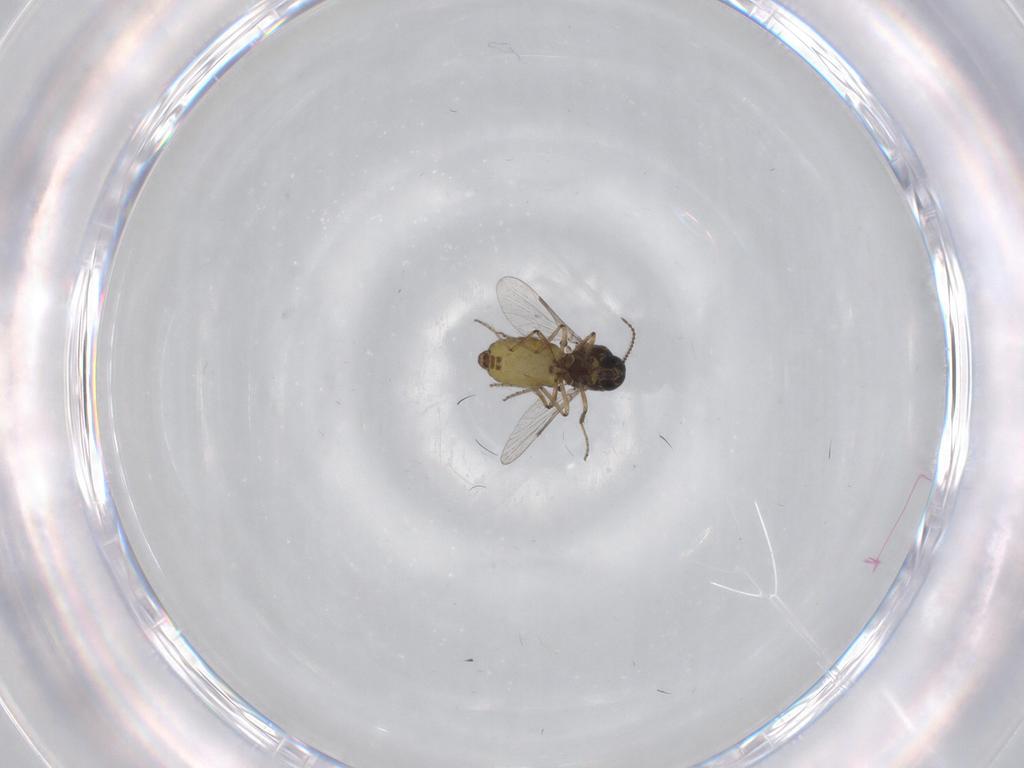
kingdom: Animalia
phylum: Arthropoda
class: Insecta
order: Diptera
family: Ceratopogonidae
